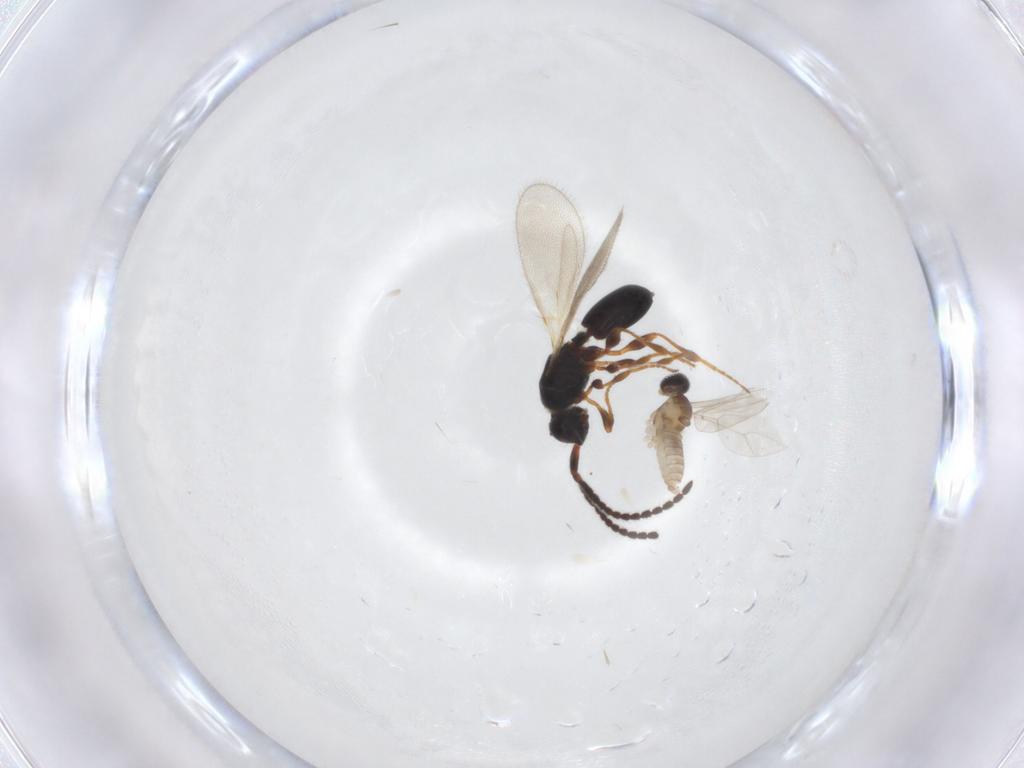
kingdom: Animalia
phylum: Arthropoda
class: Insecta
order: Hymenoptera
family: Diapriidae
